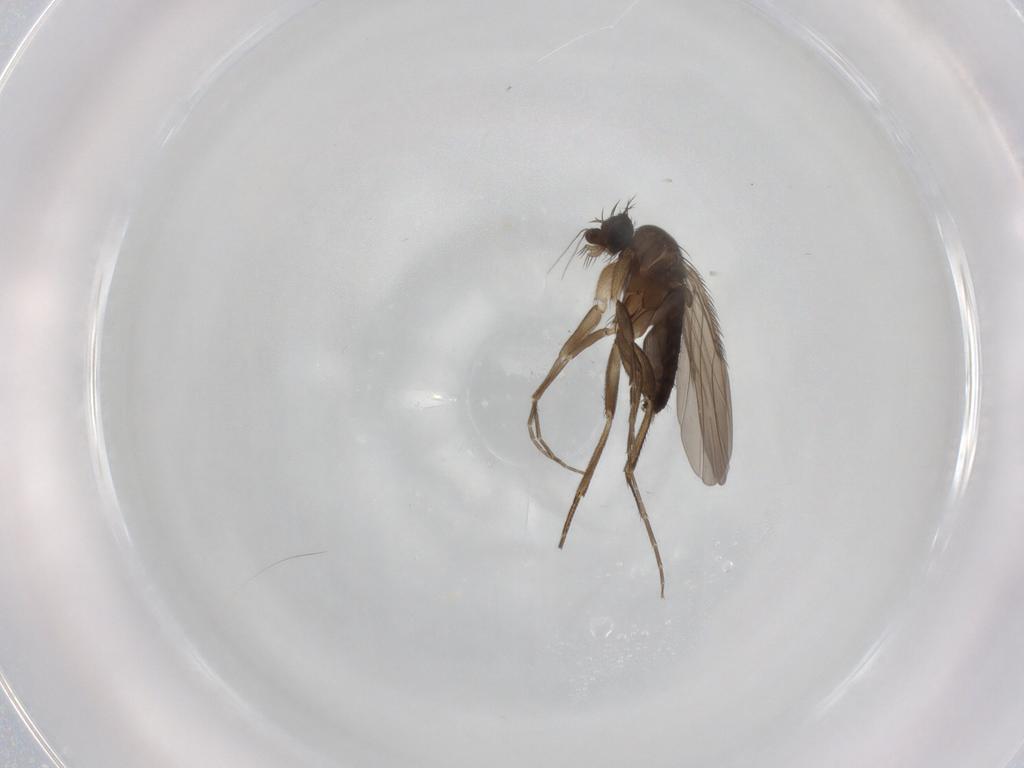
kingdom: Animalia
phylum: Arthropoda
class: Insecta
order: Diptera
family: Phoridae
